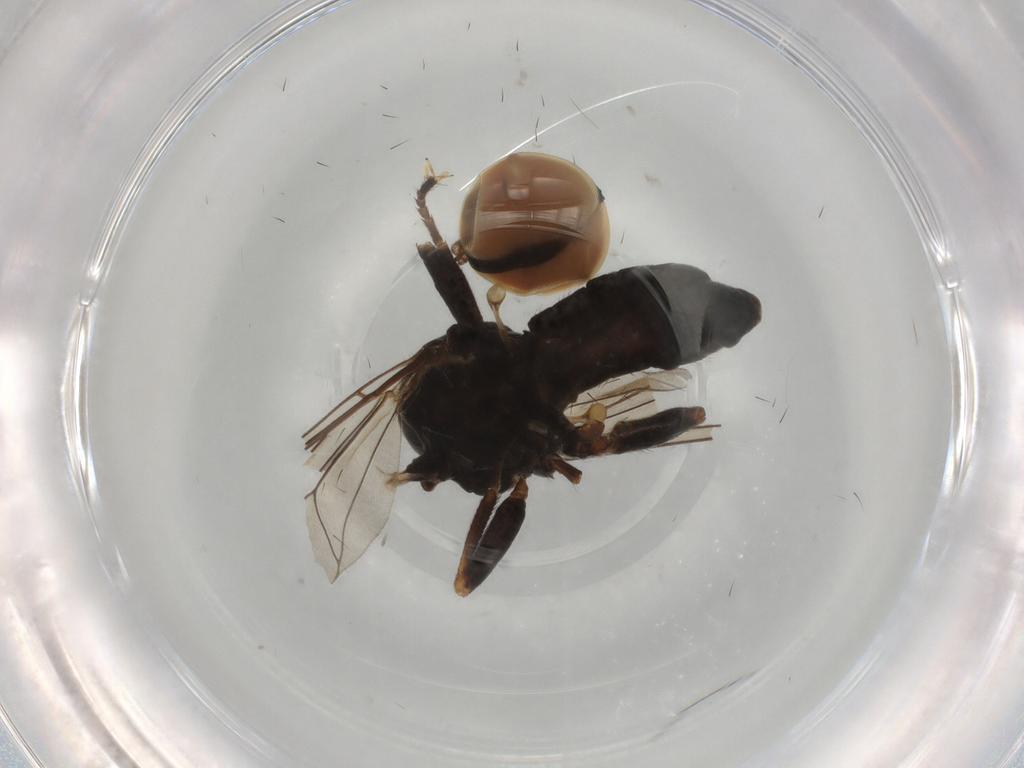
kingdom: Animalia
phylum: Arthropoda
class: Insecta
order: Diptera
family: Pipunculidae
